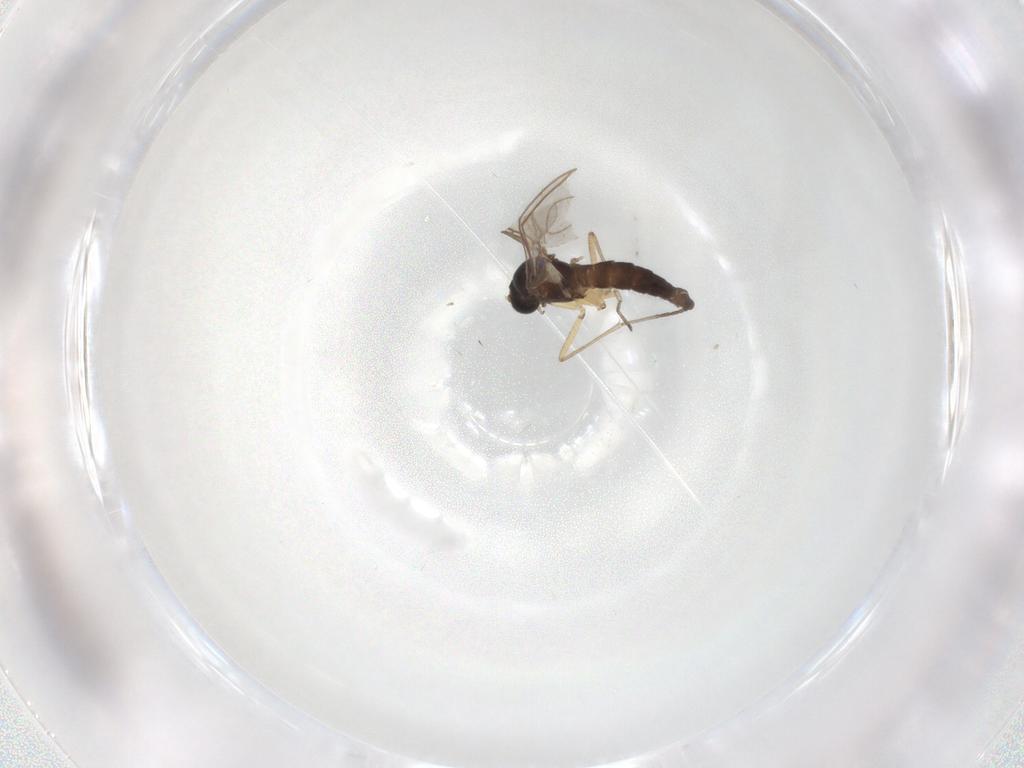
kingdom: Animalia
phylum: Arthropoda
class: Insecta
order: Diptera
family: Sciaridae
